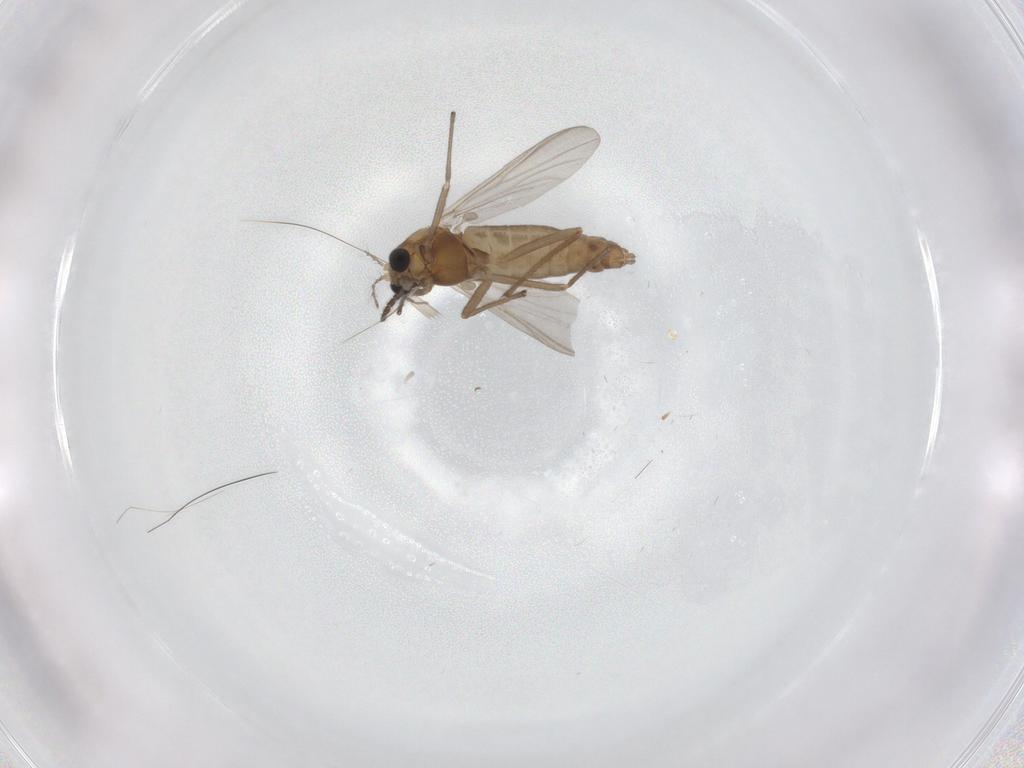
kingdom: Animalia
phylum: Arthropoda
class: Insecta
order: Diptera
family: Chironomidae
